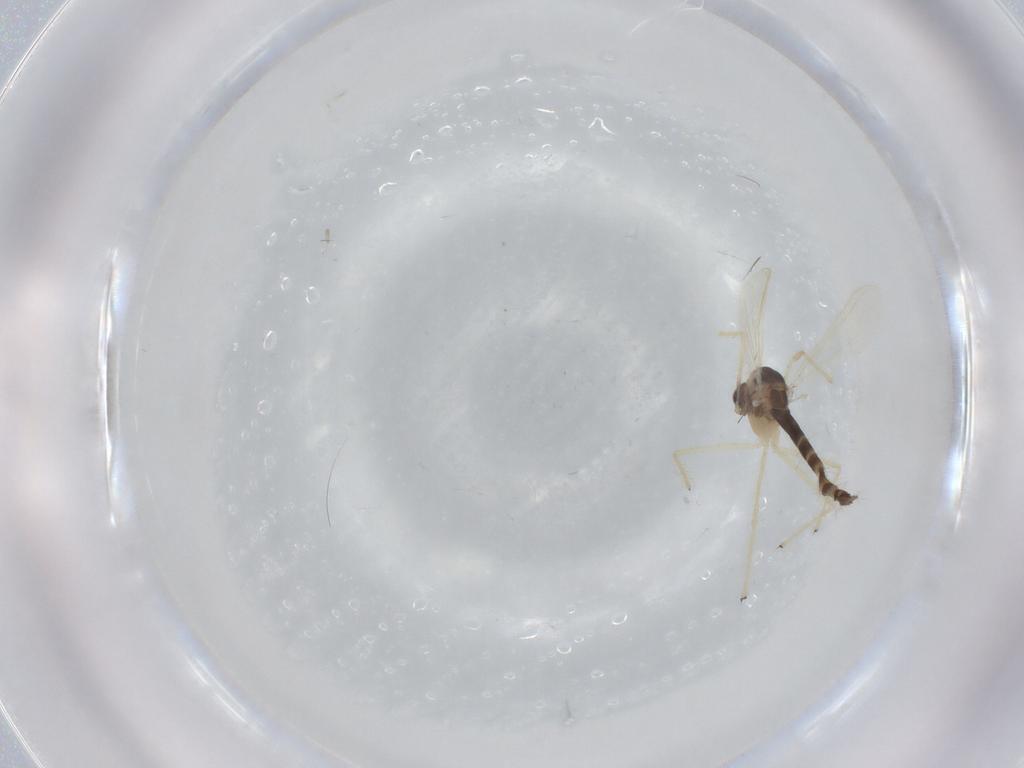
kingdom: Animalia
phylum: Arthropoda
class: Insecta
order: Diptera
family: Chironomidae
